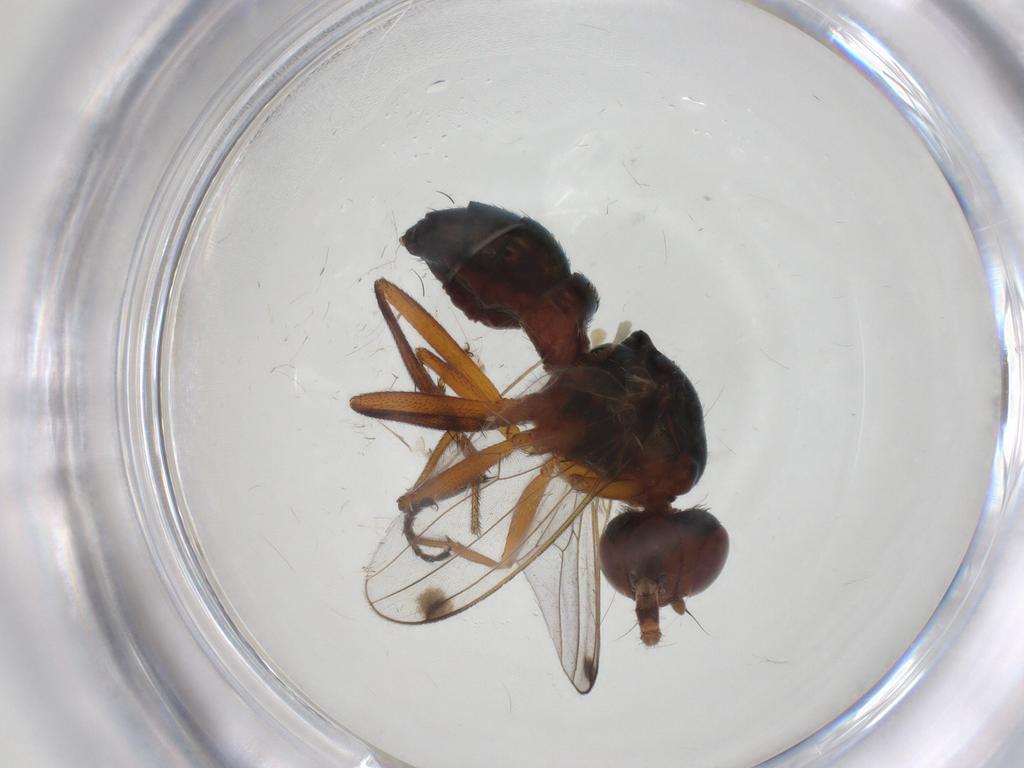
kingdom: Animalia
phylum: Arthropoda
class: Insecta
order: Diptera
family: Sepsidae
